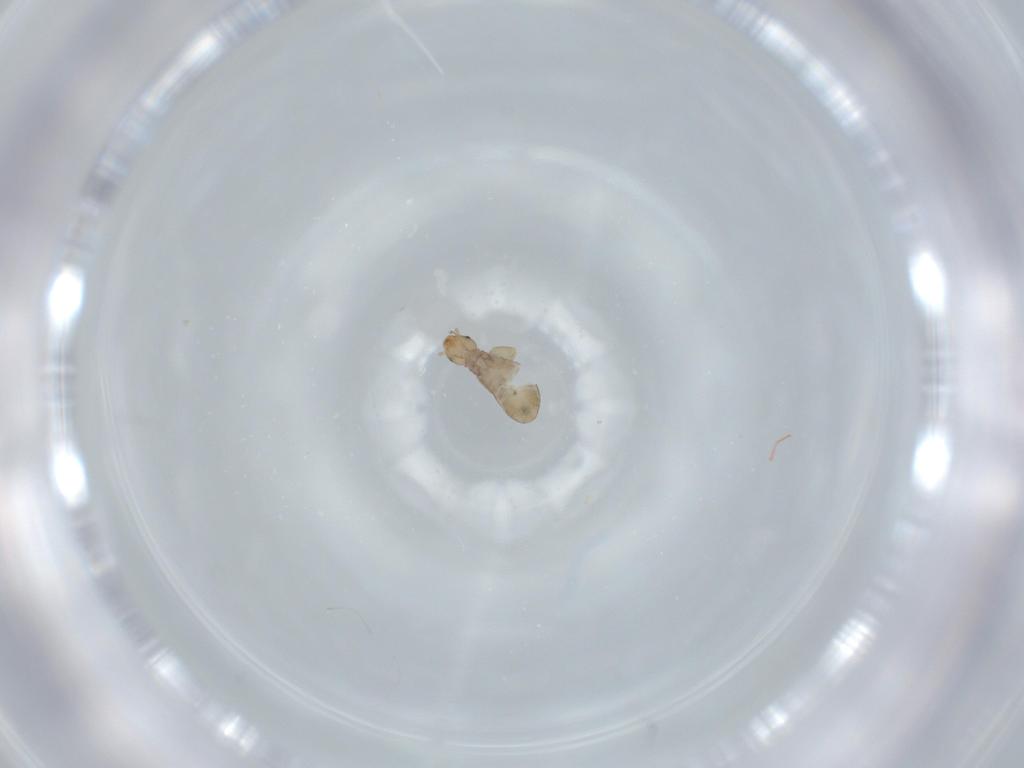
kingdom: Animalia
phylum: Arthropoda
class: Insecta
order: Psocodea
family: Liposcelididae
